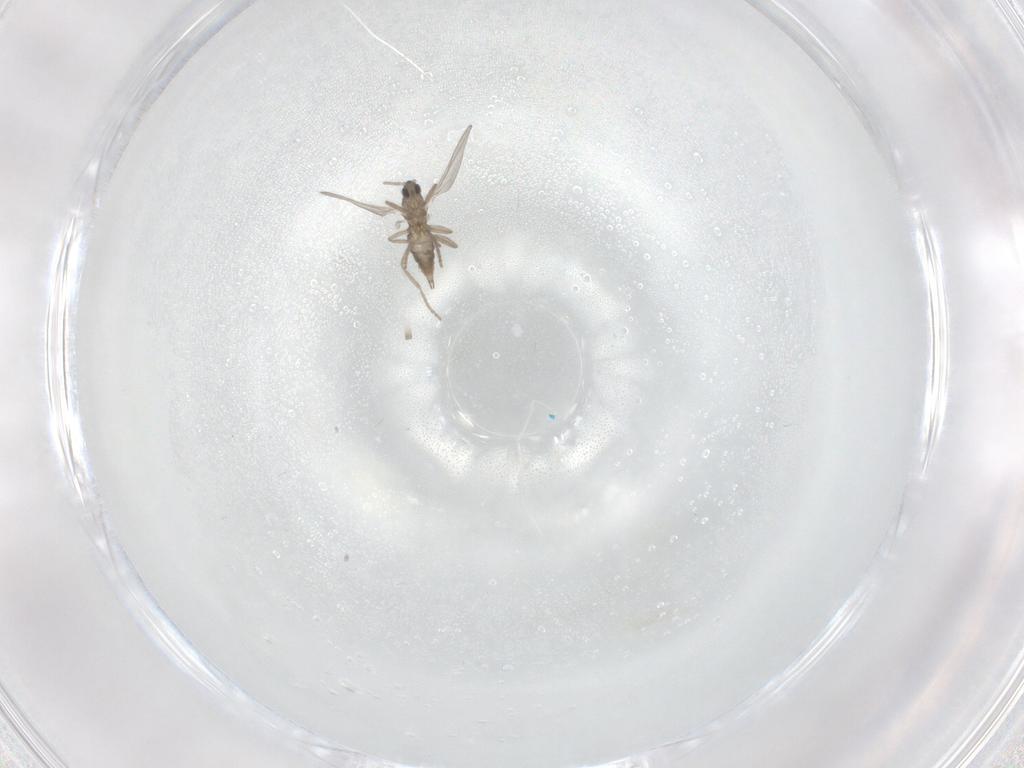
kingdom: Animalia
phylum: Arthropoda
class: Insecta
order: Diptera
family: Cecidomyiidae
